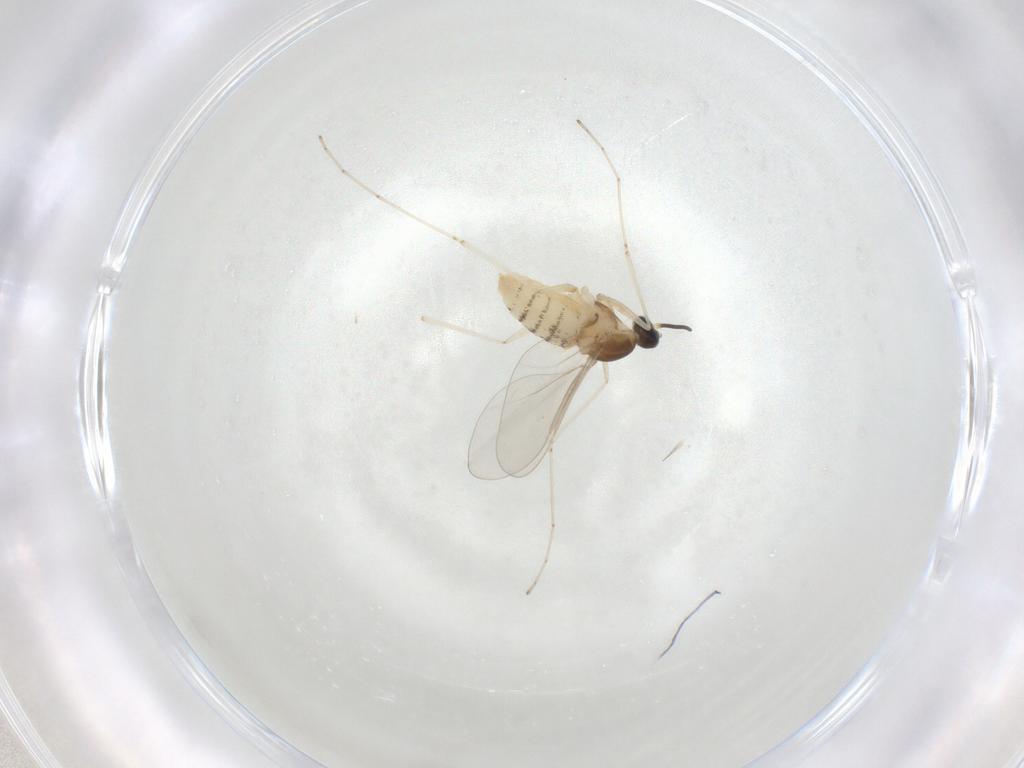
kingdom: Animalia
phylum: Arthropoda
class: Insecta
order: Diptera
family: Cecidomyiidae
